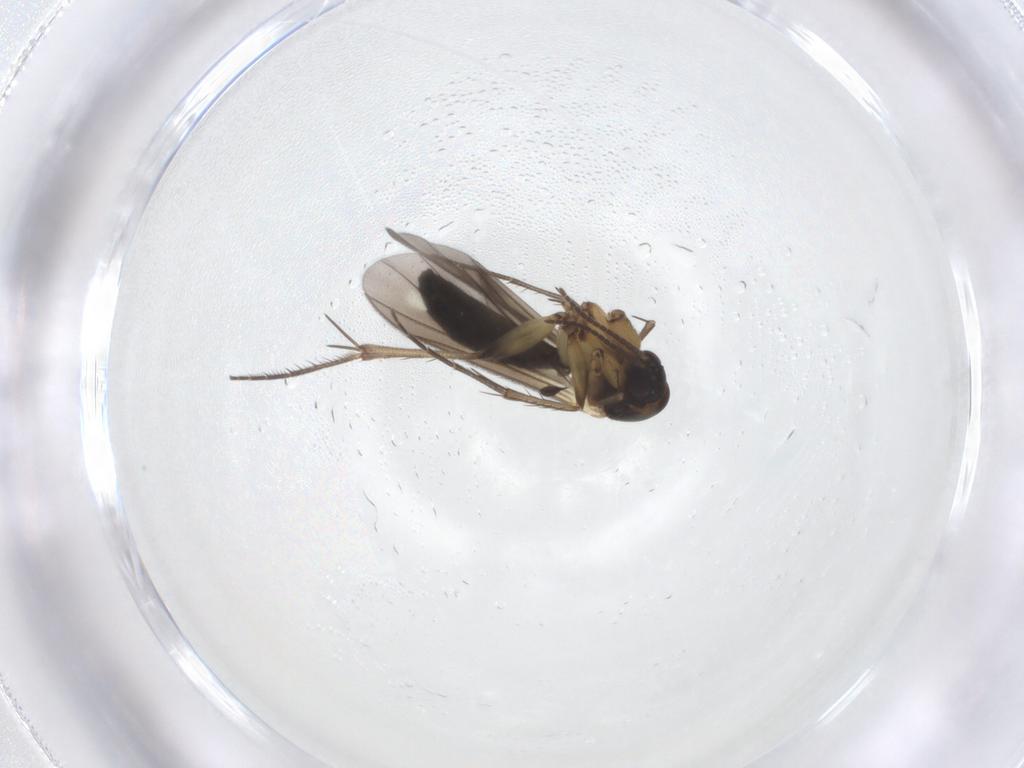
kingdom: Animalia
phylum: Arthropoda
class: Insecta
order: Diptera
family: Mycetophilidae
